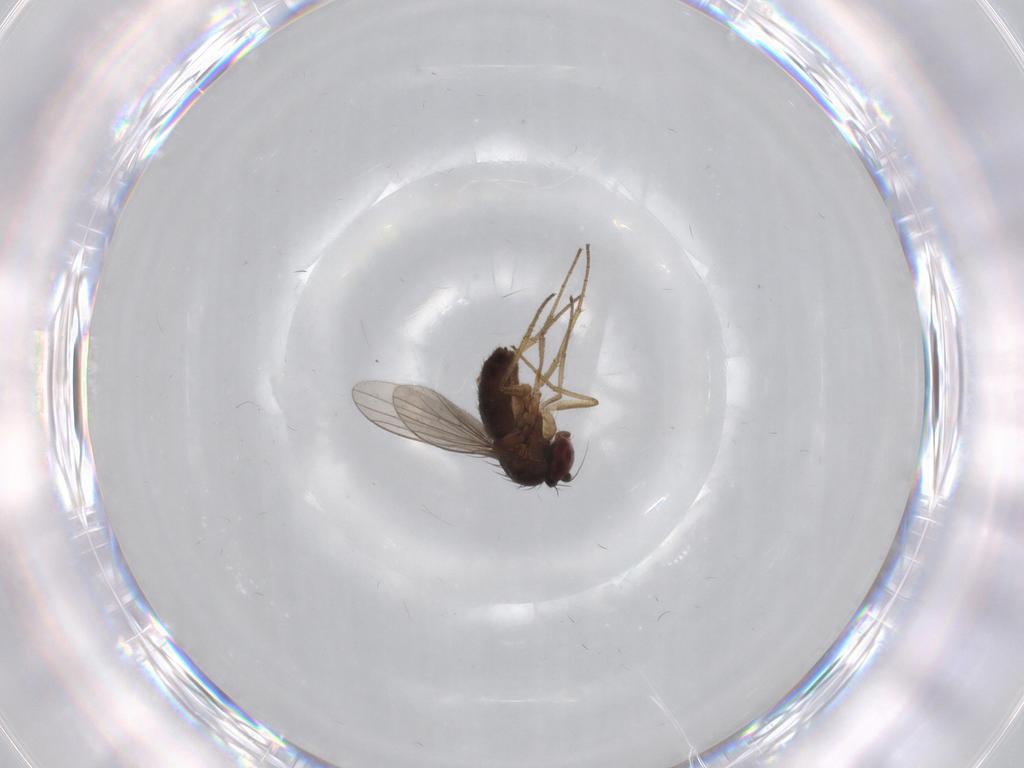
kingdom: Animalia
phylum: Arthropoda
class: Insecta
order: Diptera
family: Dolichopodidae
